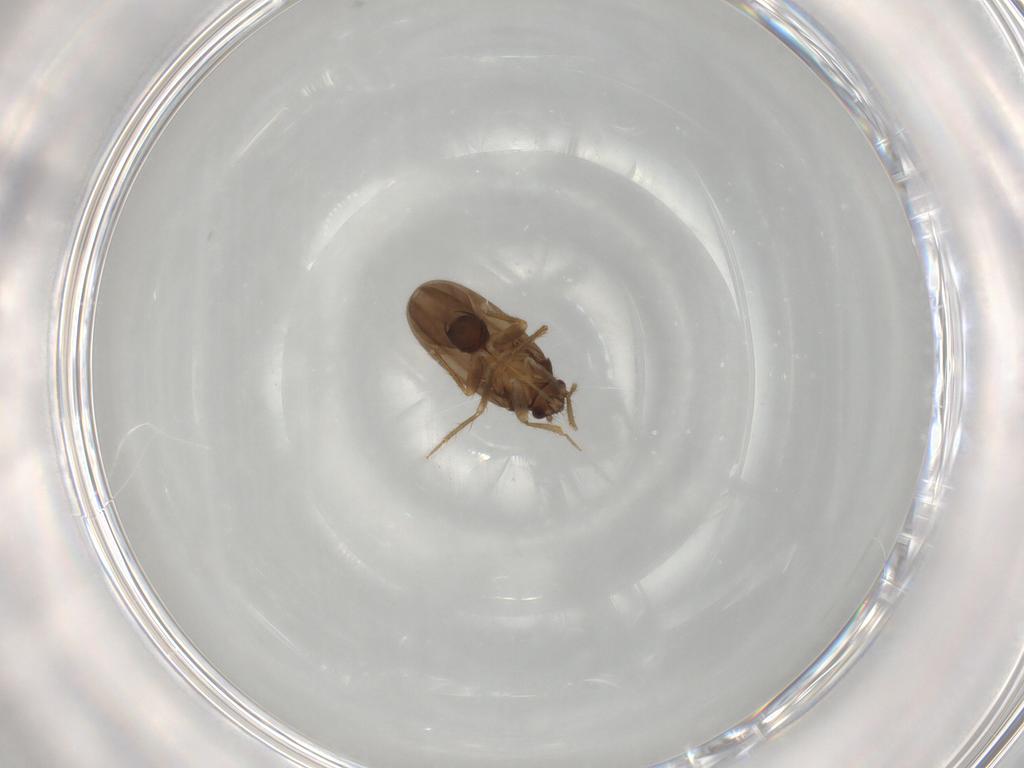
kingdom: Animalia
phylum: Arthropoda
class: Insecta
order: Hemiptera
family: Ceratocombidae
